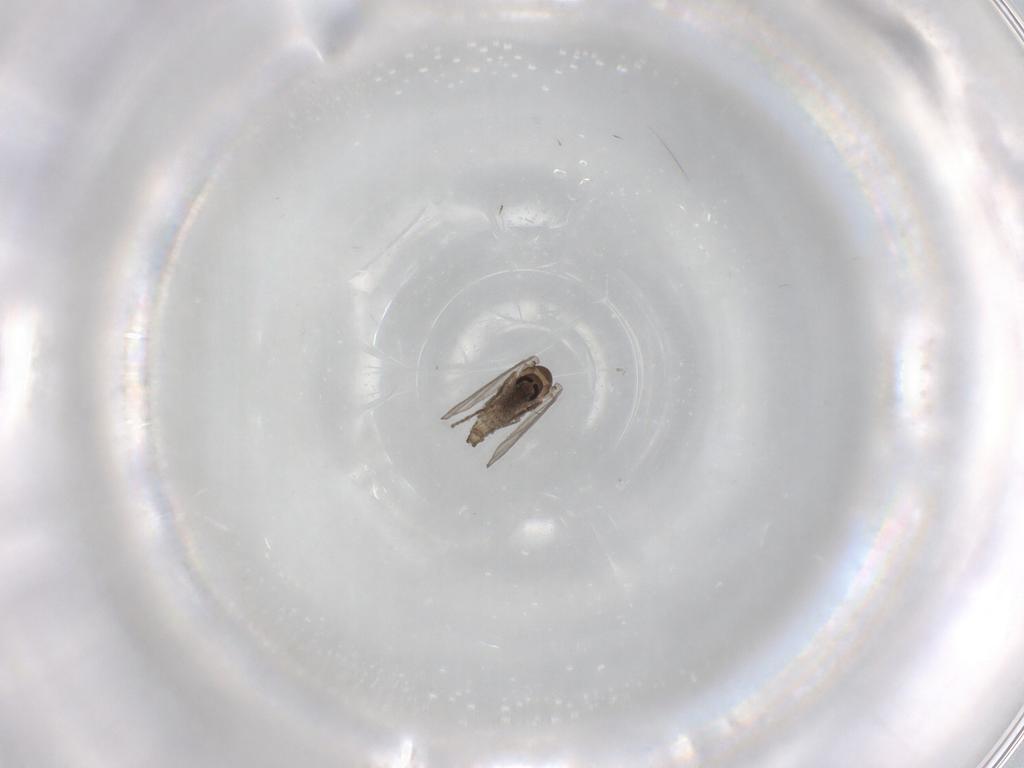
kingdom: Animalia
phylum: Arthropoda
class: Insecta
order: Diptera
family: Psychodidae
